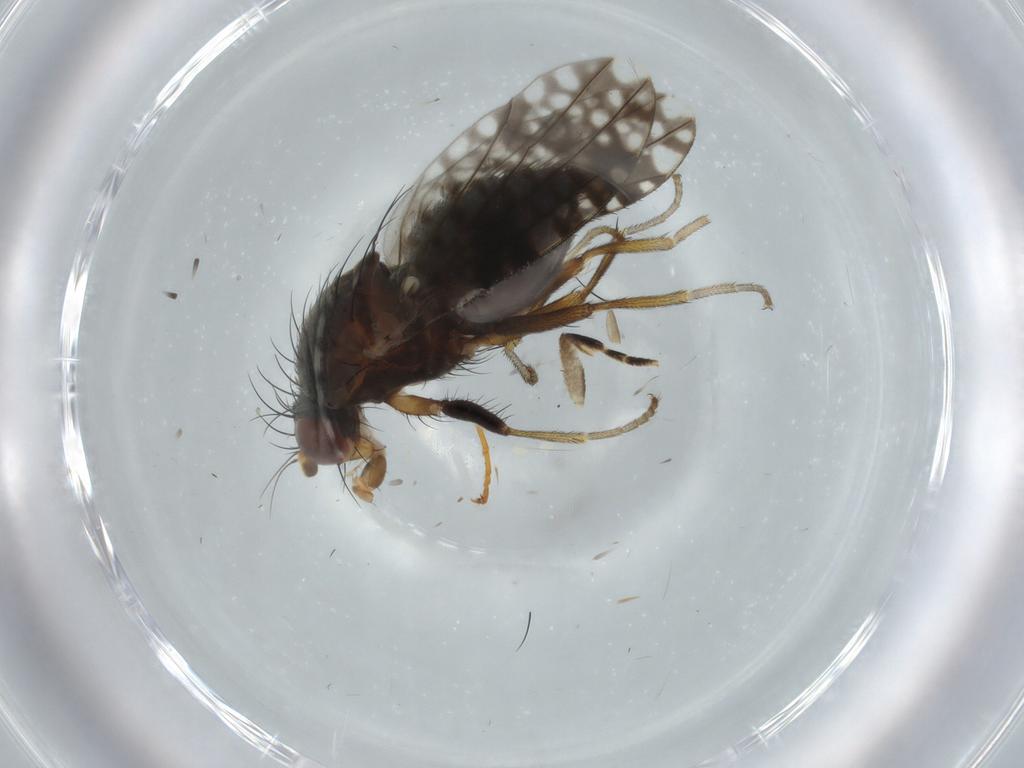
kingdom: Animalia
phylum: Arthropoda
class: Insecta
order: Diptera
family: Tephritidae
